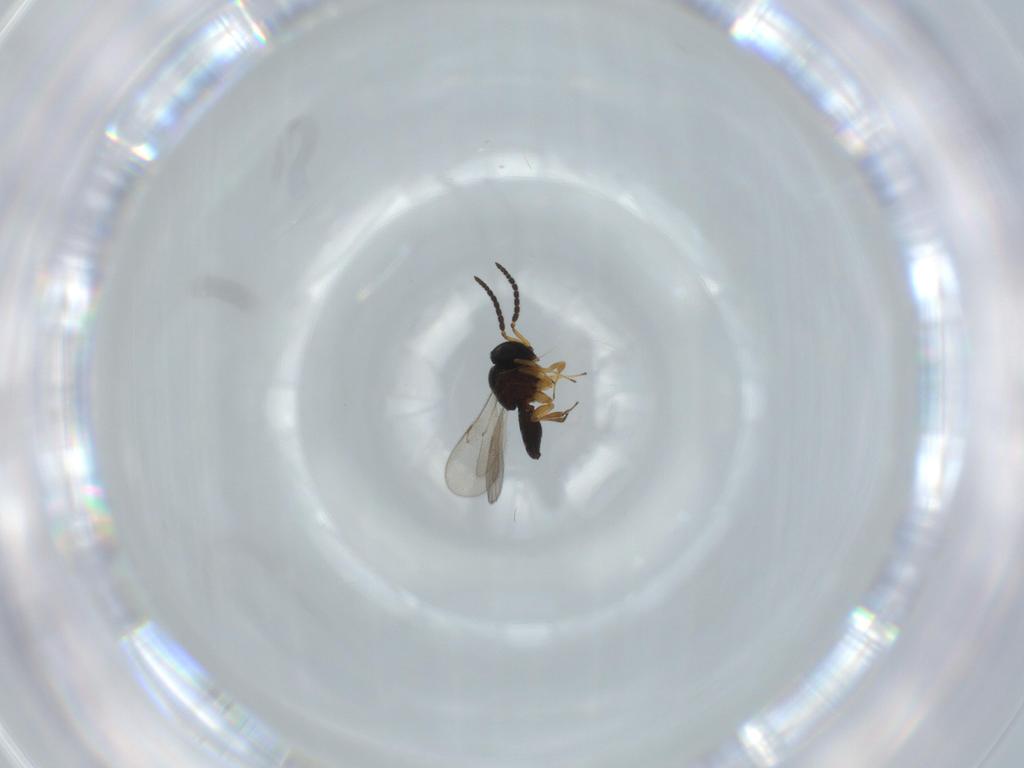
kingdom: Animalia
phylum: Arthropoda
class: Insecta
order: Hymenoptera
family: Scelionidae
